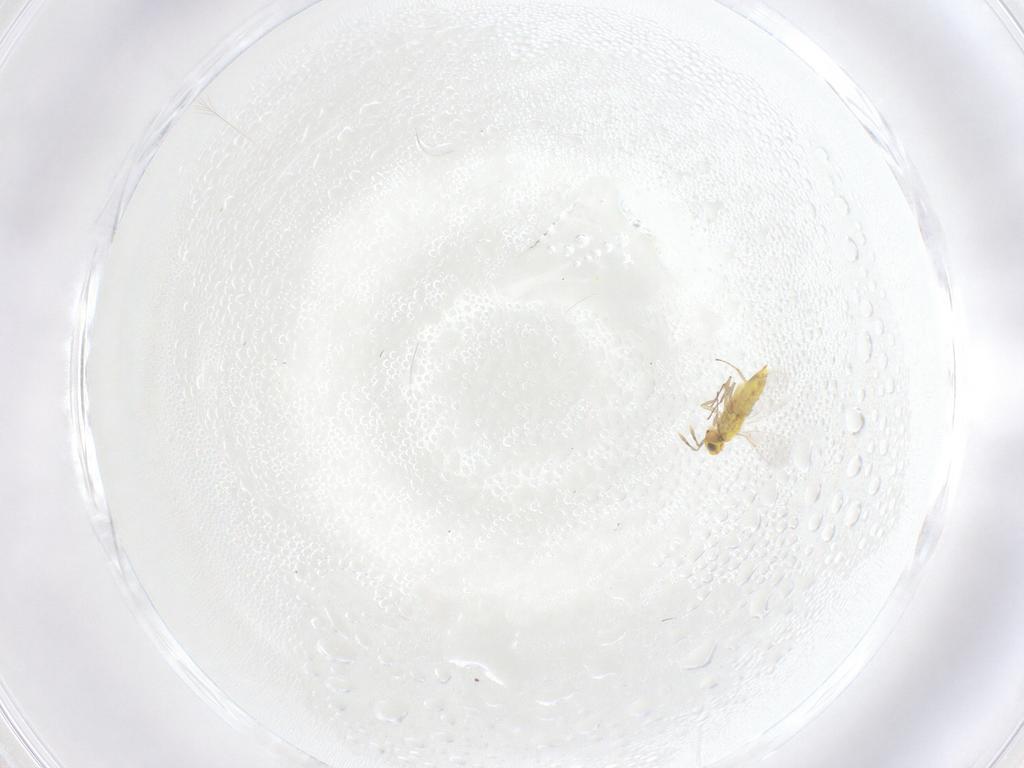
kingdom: Animalia
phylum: Arthropoda
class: Insecta
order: Hymenoptera
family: Aphelinidae
